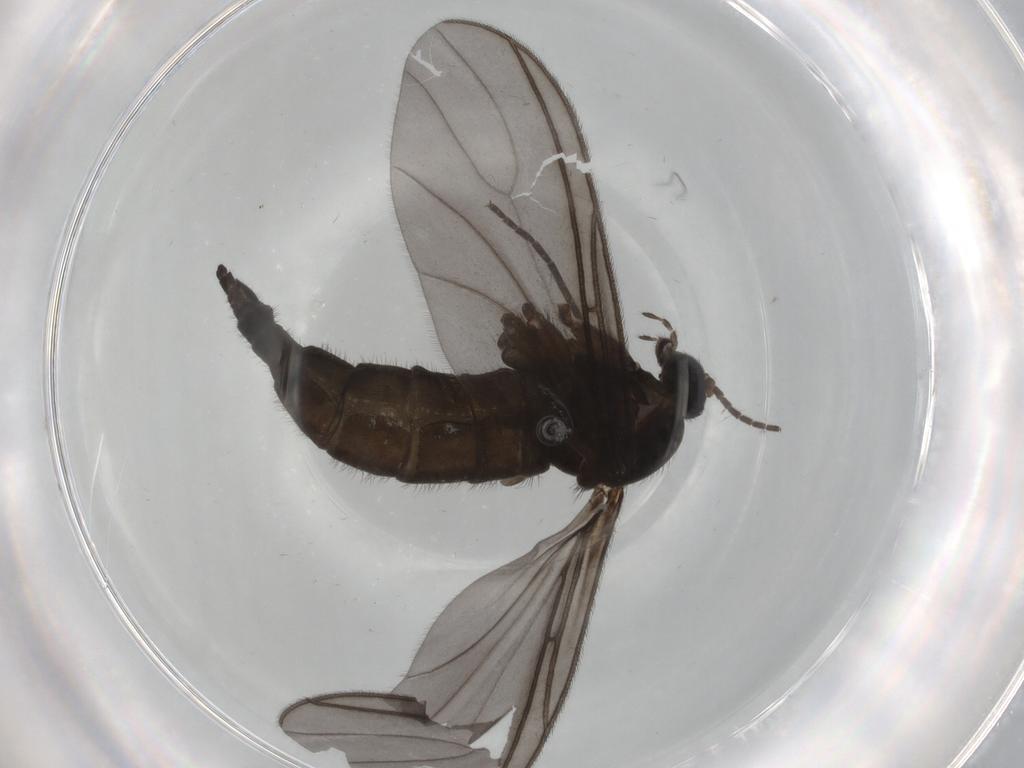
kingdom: Animalia
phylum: Arthropoda
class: Insecta
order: Diptera
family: Sciaridae
